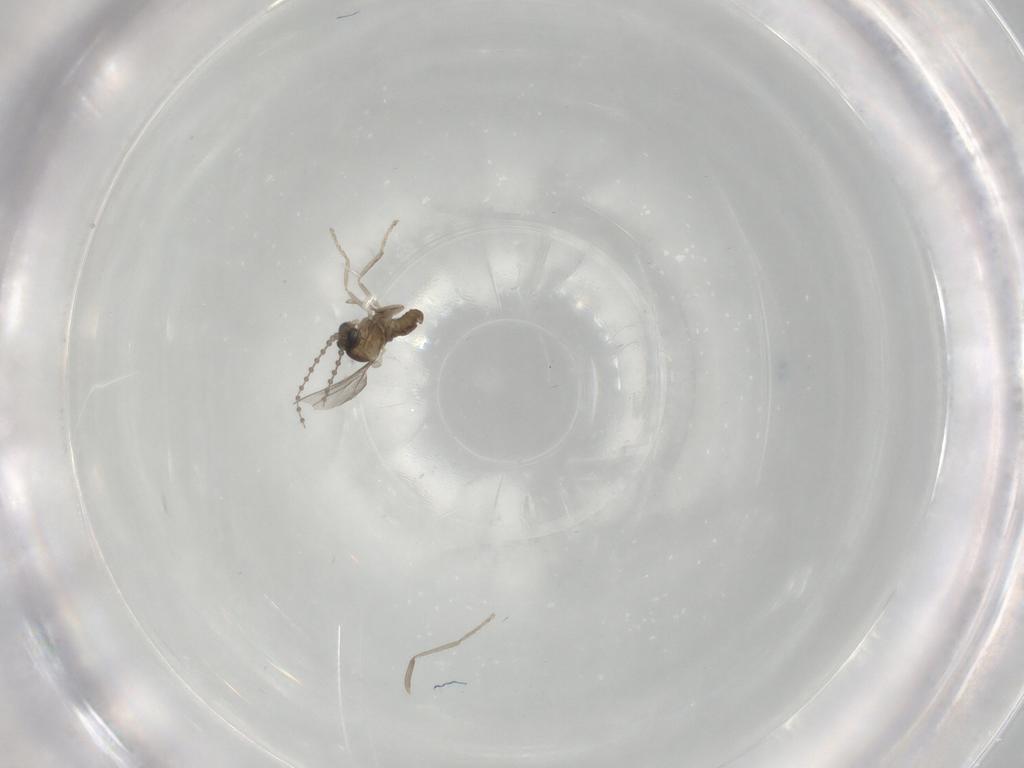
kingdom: Animalia
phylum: Arthropoda
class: Insecta
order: Diptera
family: Cecidomyiidae
